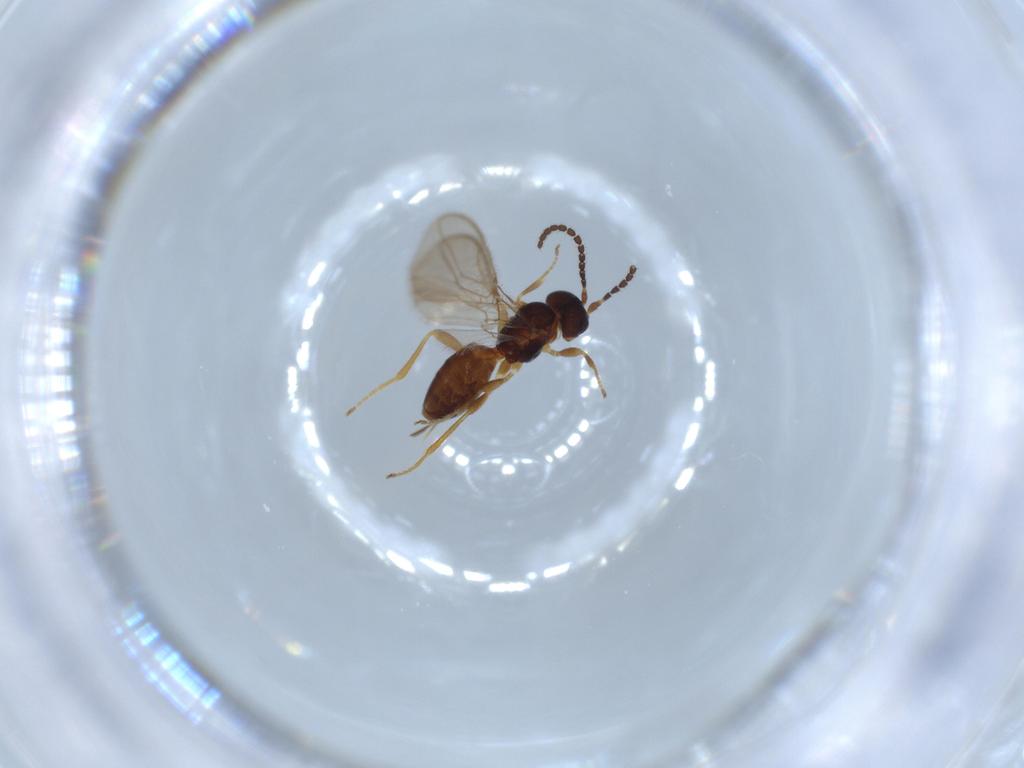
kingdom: Animalia
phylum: Arthropoda
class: Insecta
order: Hymenoptera
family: Braconidae
